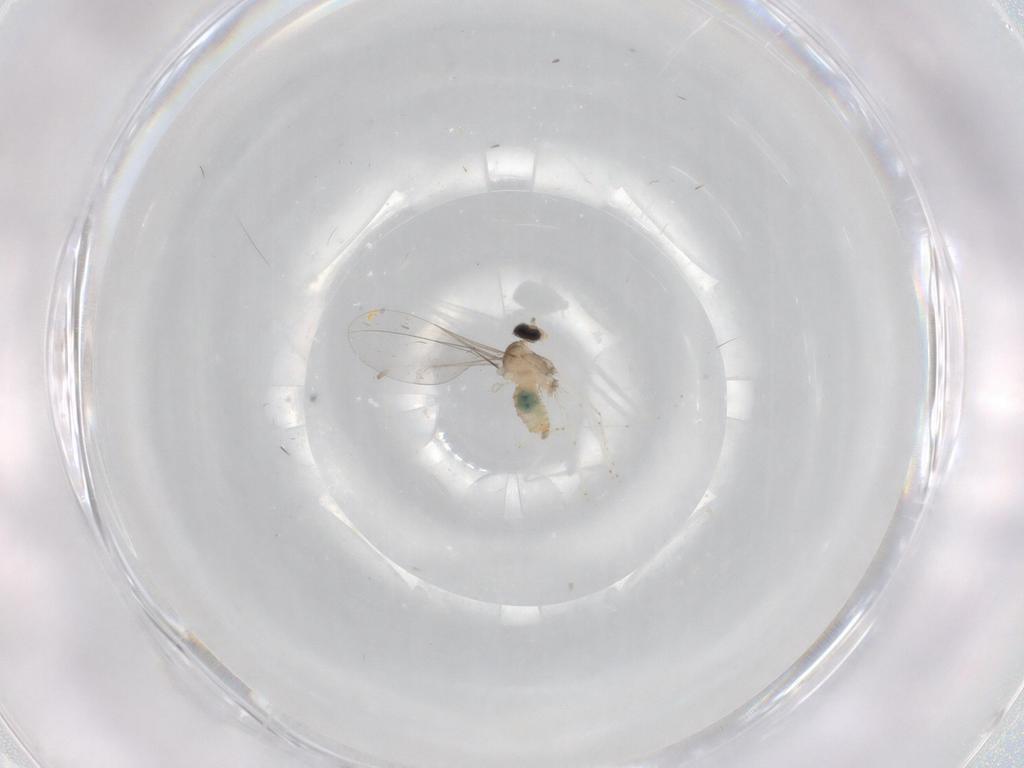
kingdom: Animalia
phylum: Arthropoda
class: Insecta
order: Diptera
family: Cecidomyiidae
